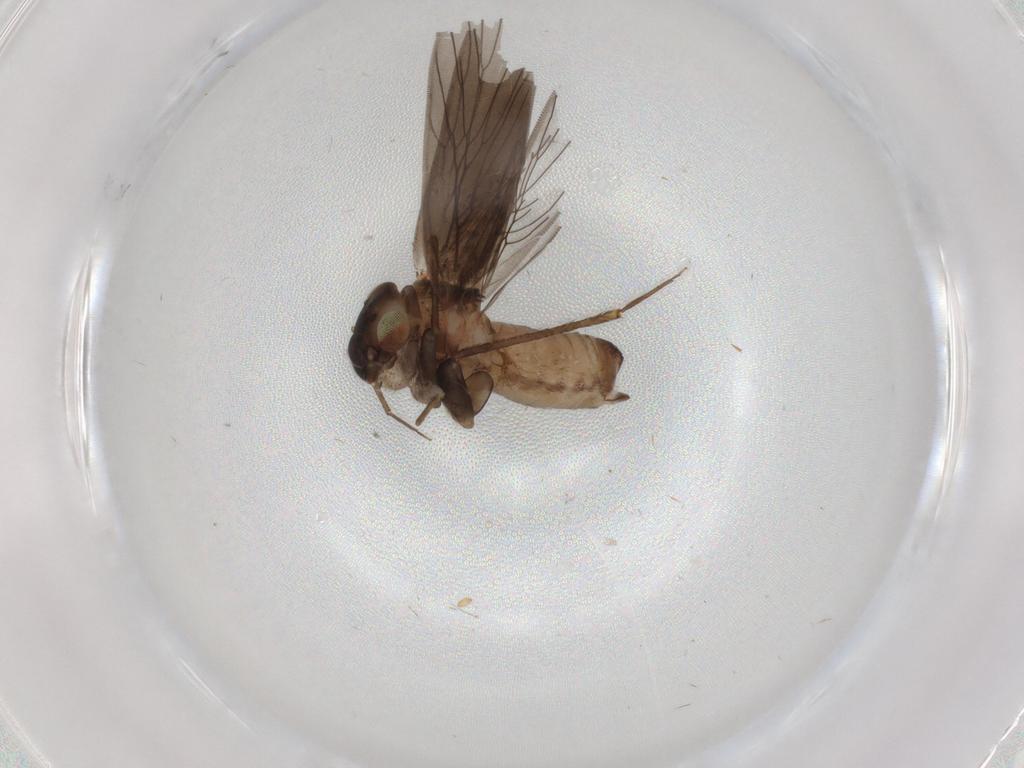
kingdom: Animalia
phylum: Arthropoda
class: Insecta
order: Psocodea
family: Lepidopsocidae
